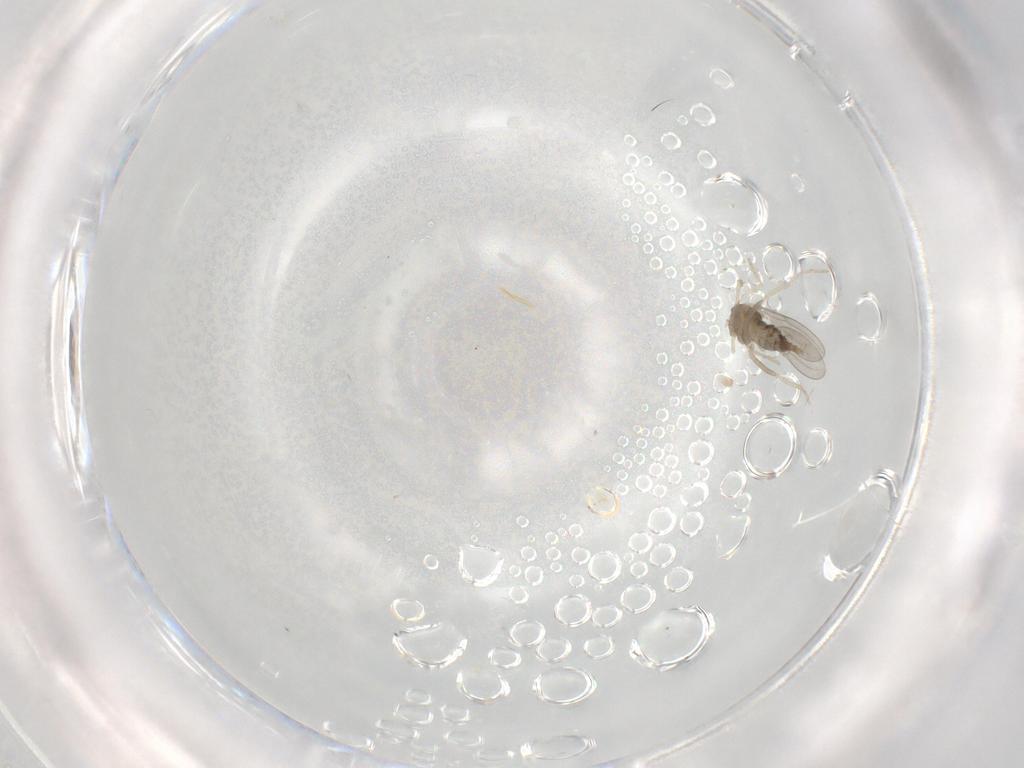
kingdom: Animalia
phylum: Arthropoda
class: Insecta
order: Diptera
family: Cecidomyiidae
